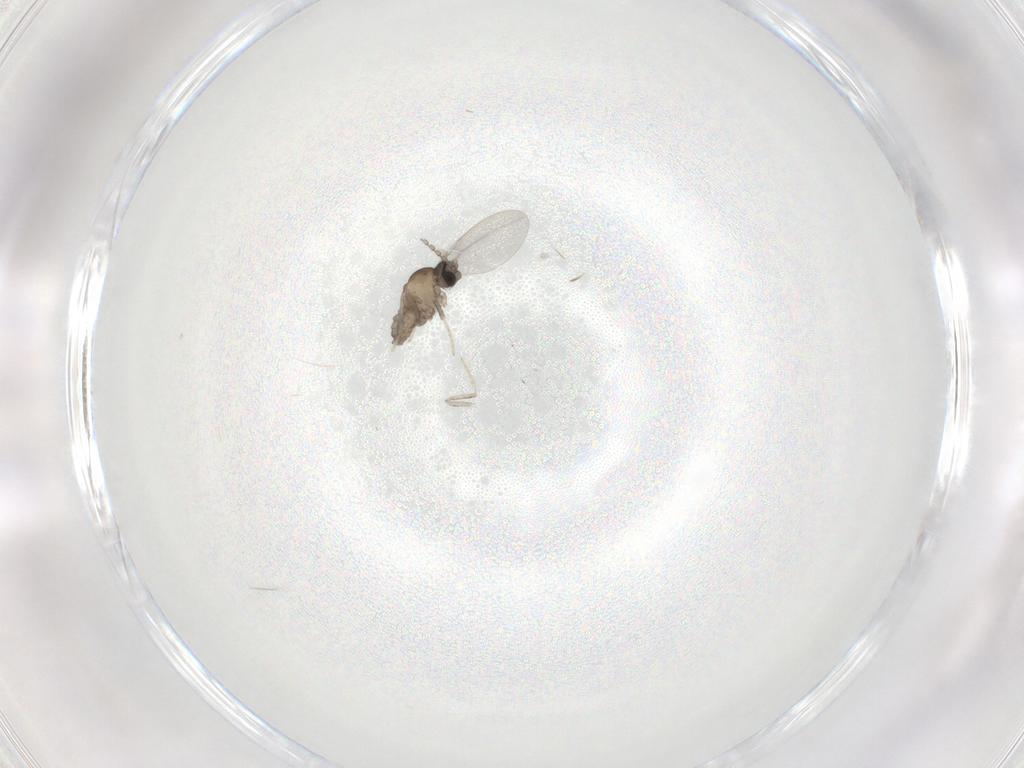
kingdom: Animalia
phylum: Arthropoda
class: Insecta
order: Diptera
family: Cecidomyiidae
